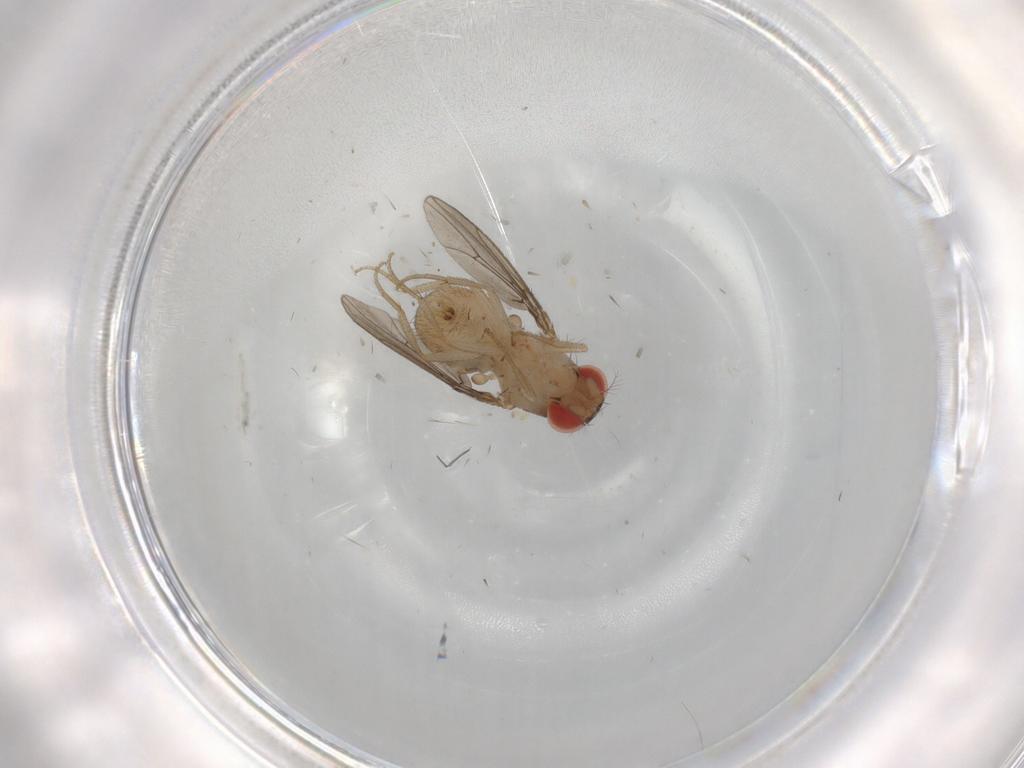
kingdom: Animalia
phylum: Arthropoda
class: Insecta
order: Diptera
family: Drosophilidae
